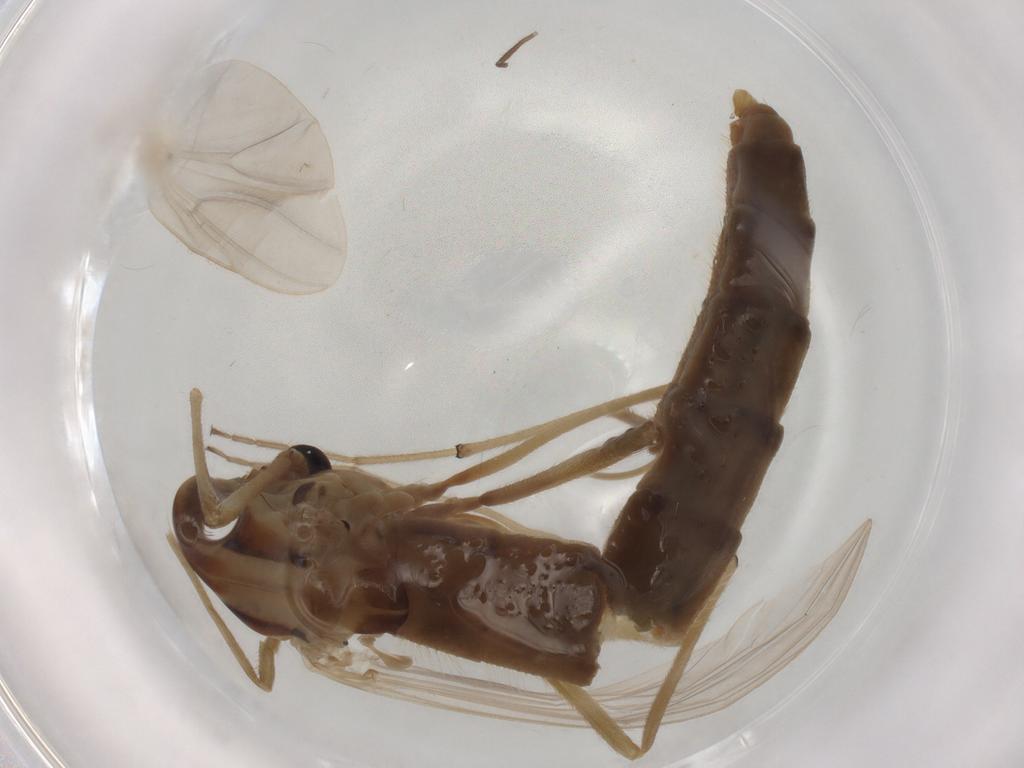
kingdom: Animalia
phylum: Arthropoda
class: Insecta
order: Diptera
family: Chironomidae
